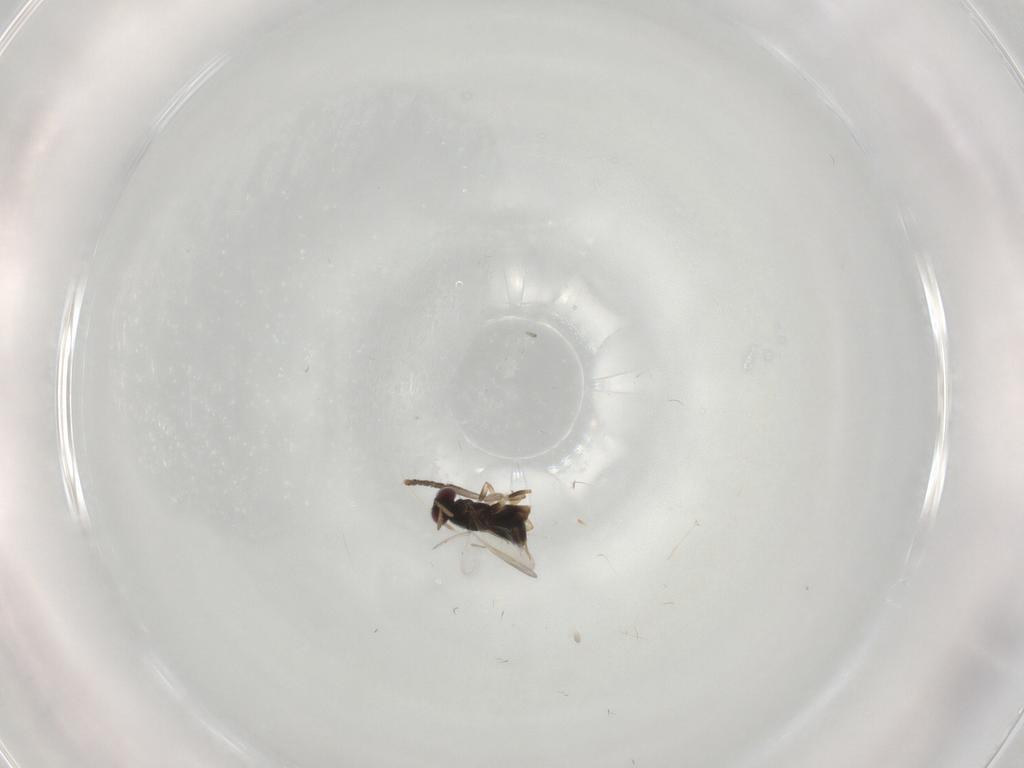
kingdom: Animalia
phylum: Arthropoda
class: Insecta
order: Hymenoptera
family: Aphelinidae
